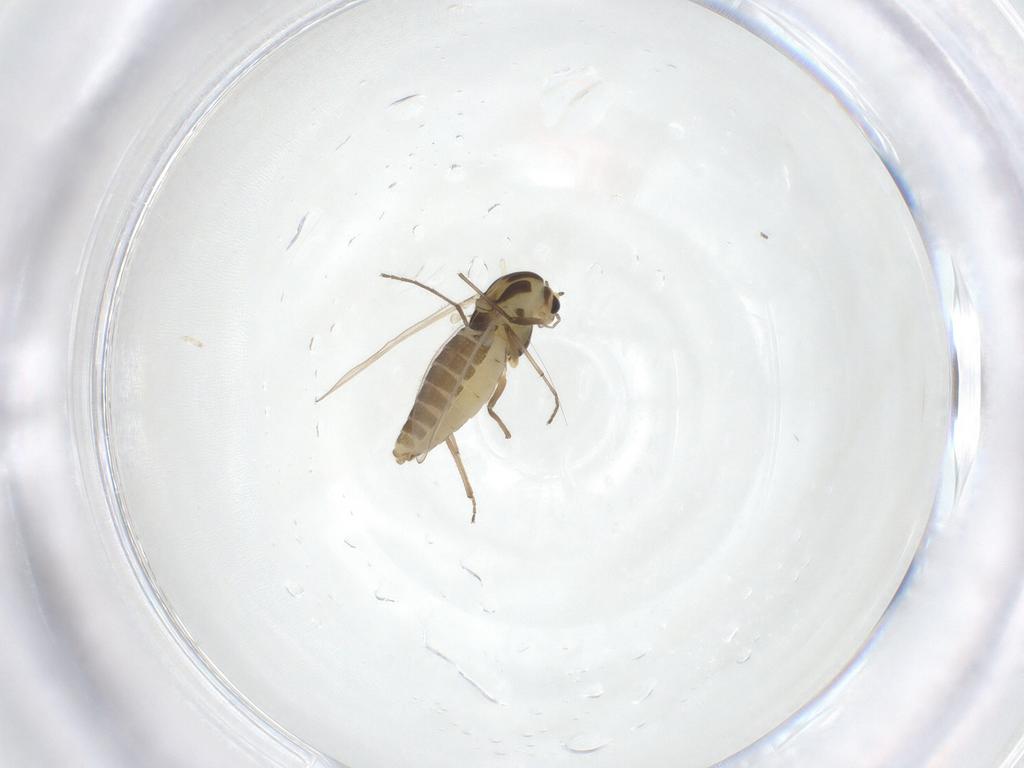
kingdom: Animalia
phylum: Arthropoda
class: Insecta
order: Diptera
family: Chironomidae
